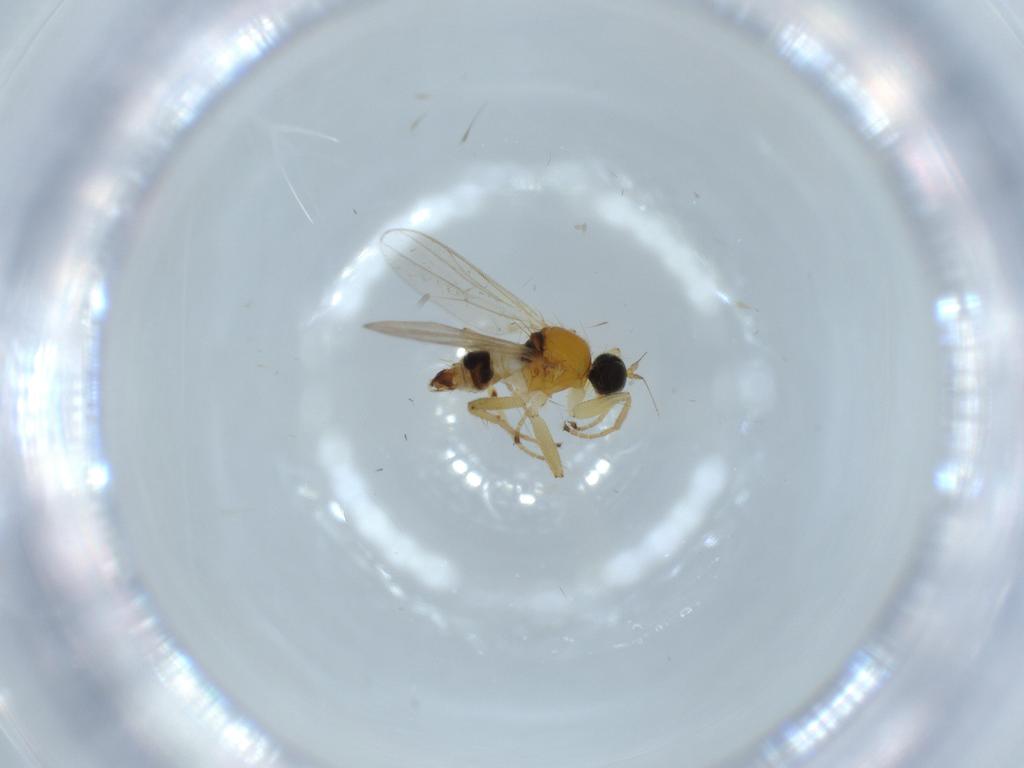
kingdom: Animalia
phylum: Arthropoda
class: Insecta
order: Diptera
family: Hybotidae
